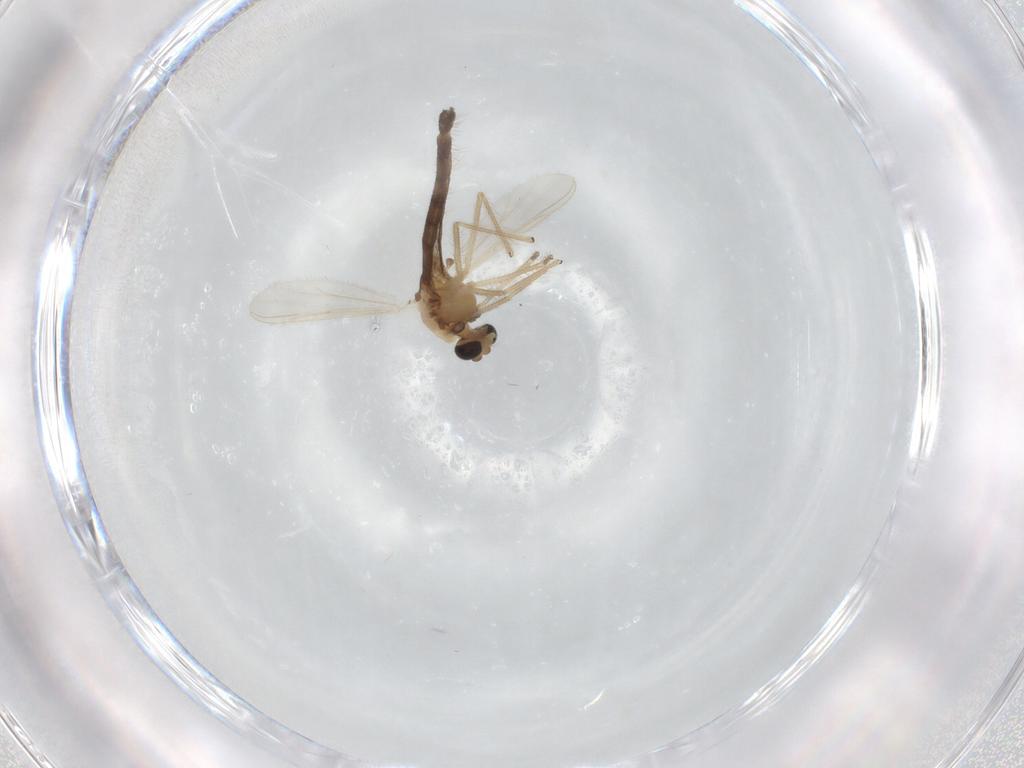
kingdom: Animalia
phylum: Arthropoda
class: Insecta
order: Diptera
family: Chironomidae
